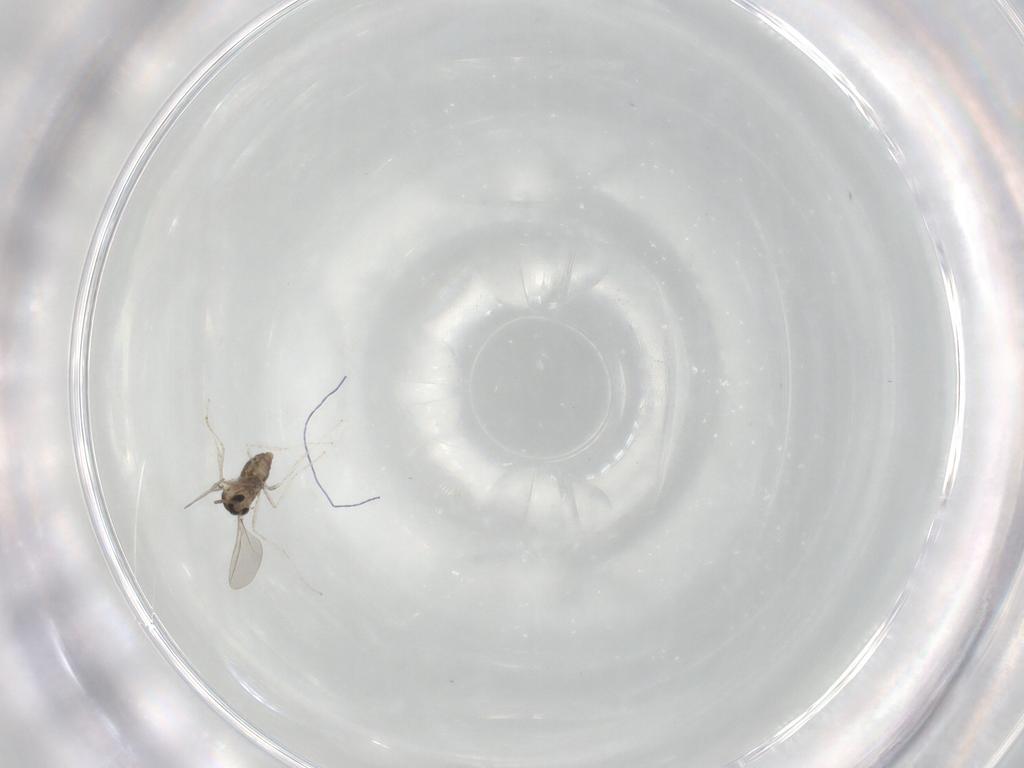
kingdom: Animalia
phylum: Arthropoda
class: Insecta
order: Diptera
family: Cecidomyiidae
